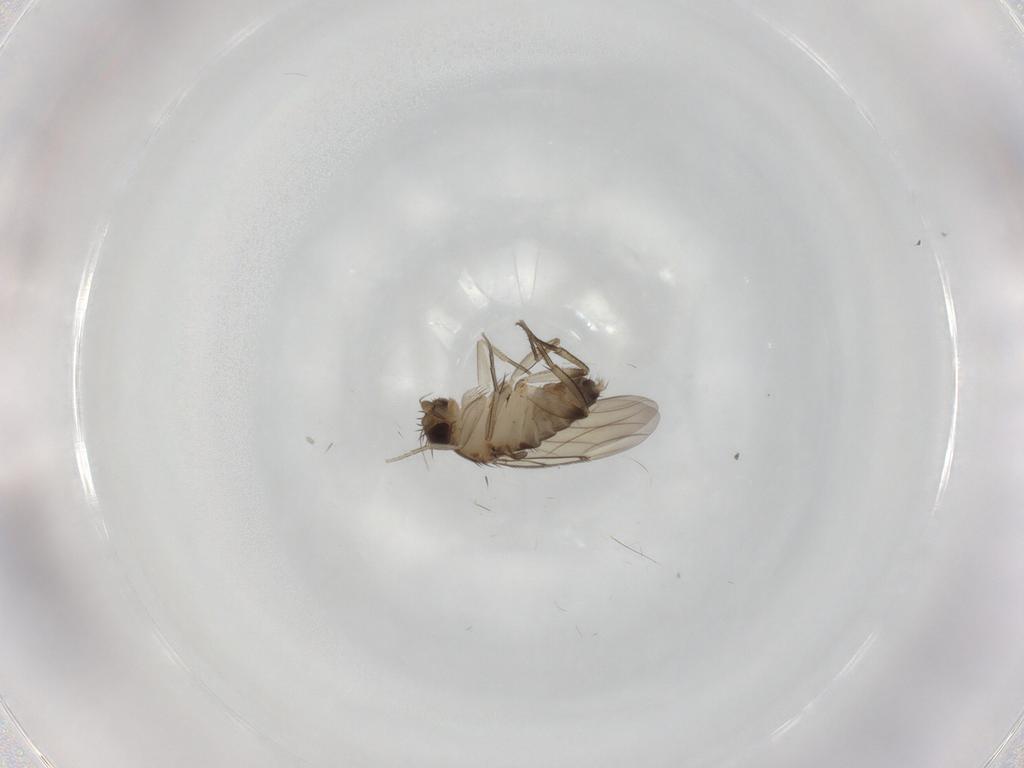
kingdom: Animalia
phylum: Arthropoda
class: Insecta
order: Diptera
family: Phoridae
